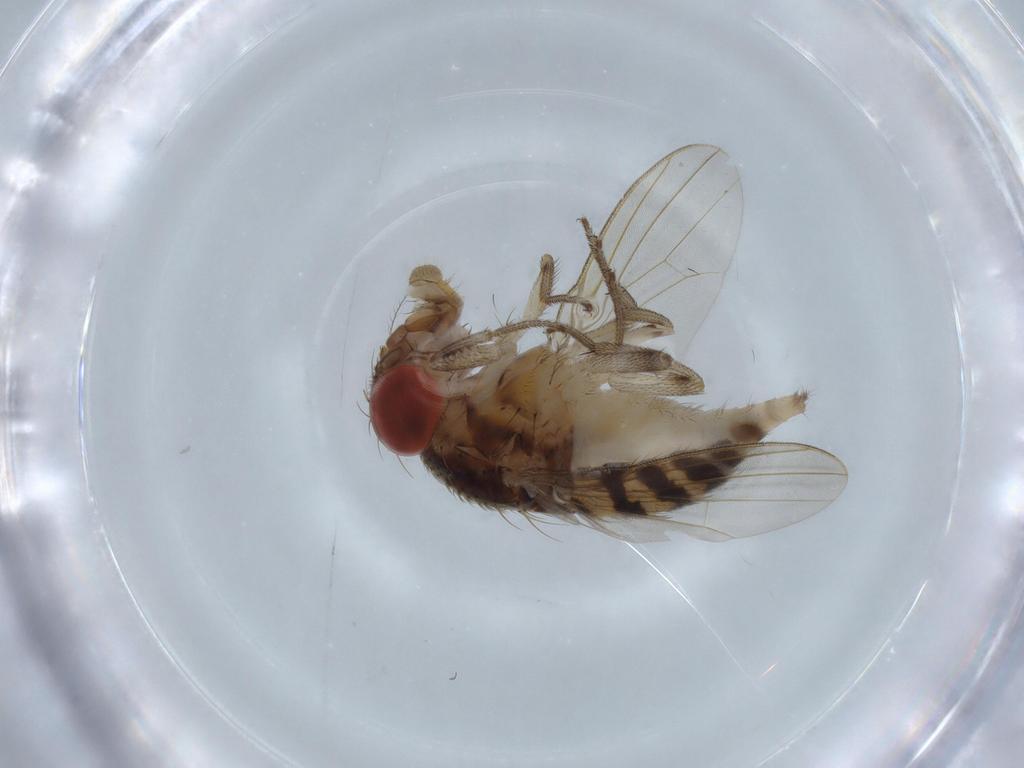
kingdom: Animalia
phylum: Arthropoda
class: Insecta
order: Diptera
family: Drosophilidae
